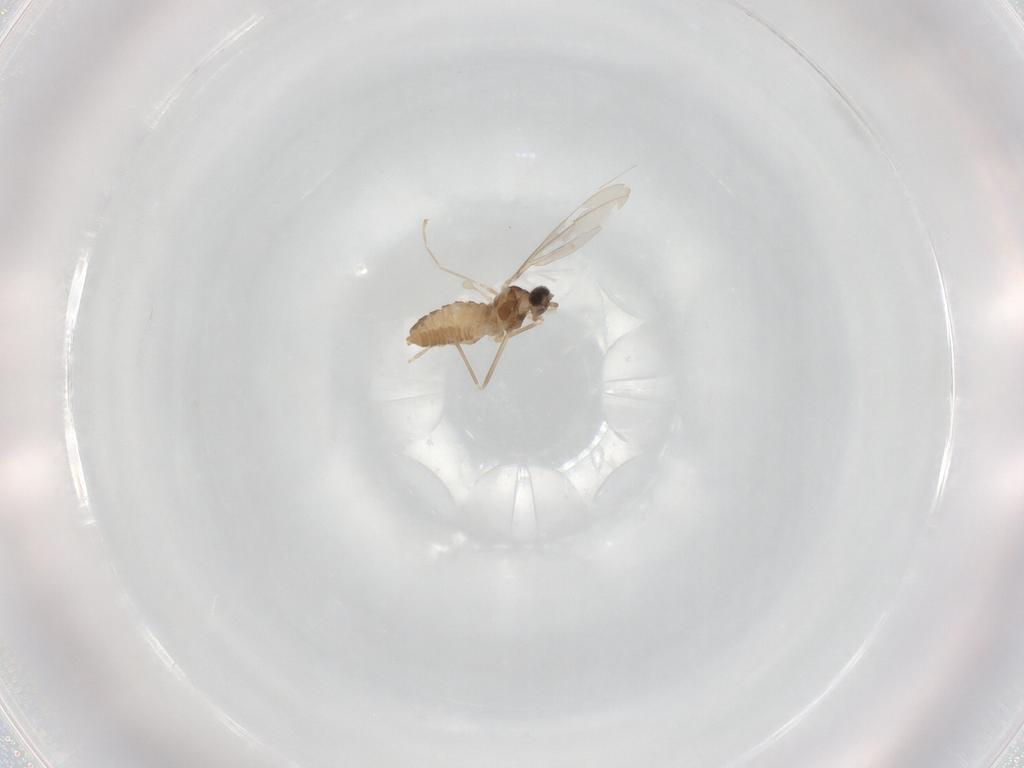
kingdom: Animalia
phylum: Arthropoda
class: Insecta
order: Diptera
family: Cecidomyiidae
